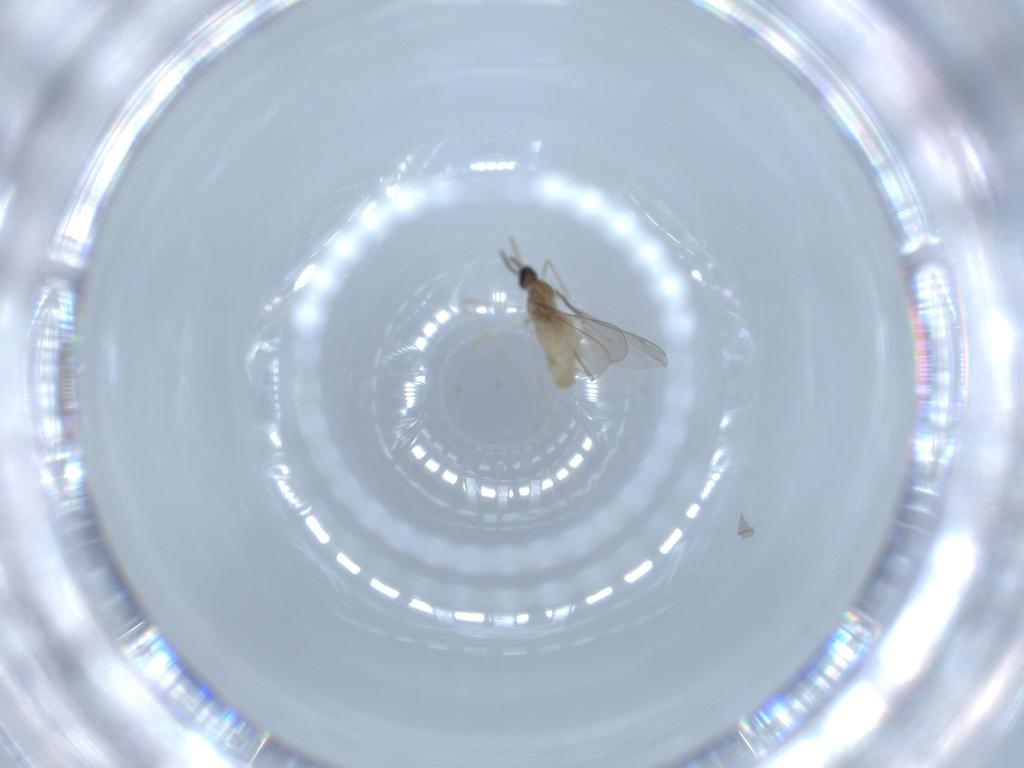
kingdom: Animalia
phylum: Arthropoda
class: Insecta
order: Diptera
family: Cecidomyiidae
